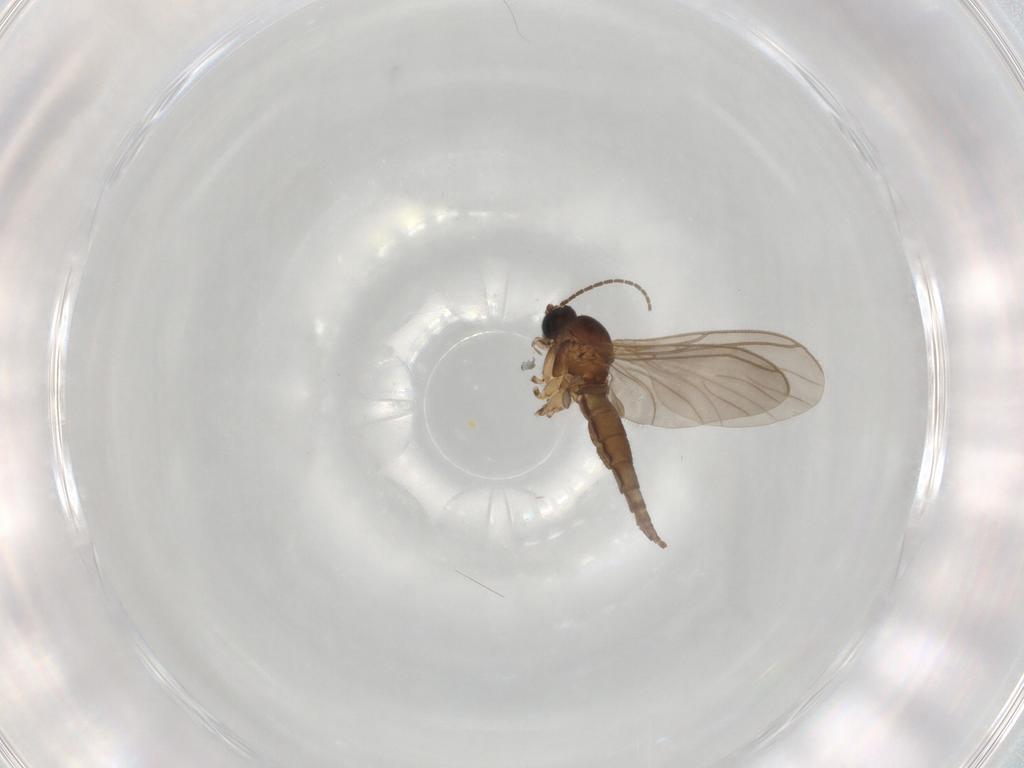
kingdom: Animalia
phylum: Arthropoda
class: Insecta
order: Diptera
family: Sciaridae
